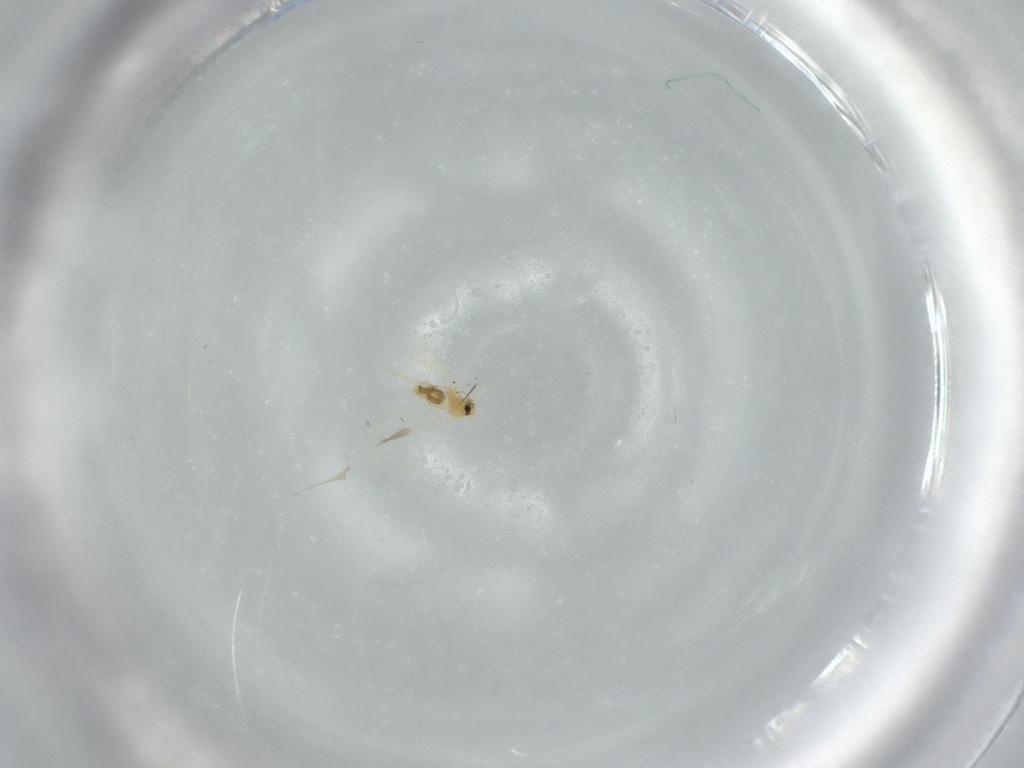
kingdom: Animalia
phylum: Arthropoda
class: Insecta
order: Hemiptera
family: Aleyrodidae
